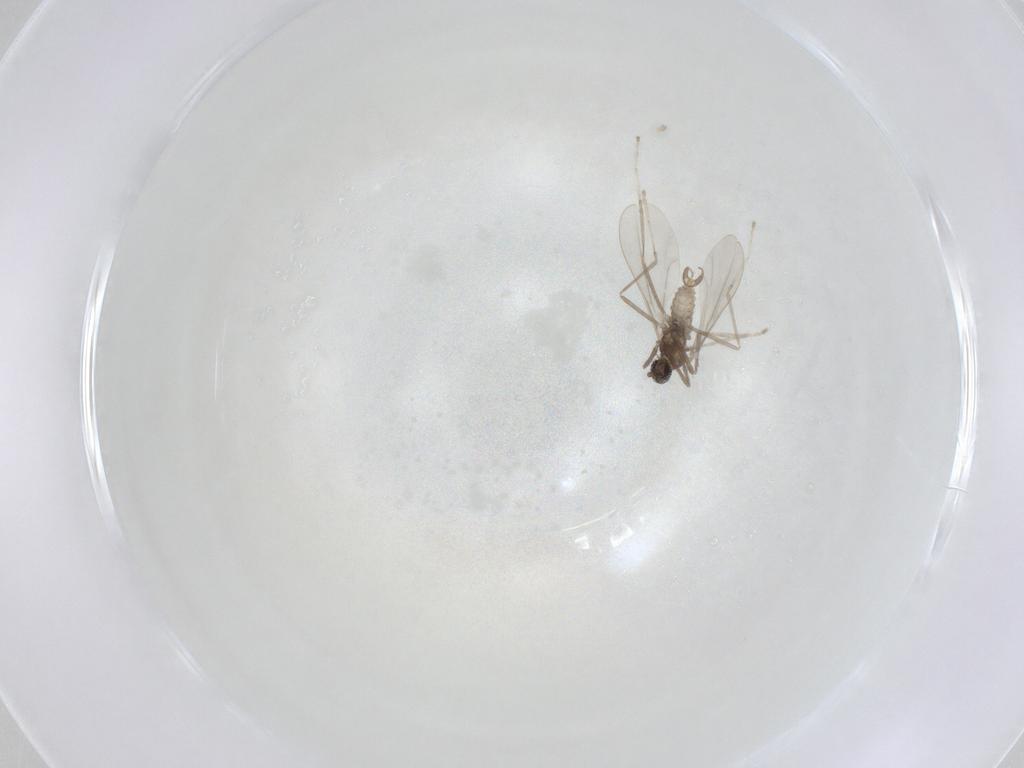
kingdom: Animalia
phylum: Arthropoda
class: Insecta
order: Diptera
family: Cecidomyiidae
